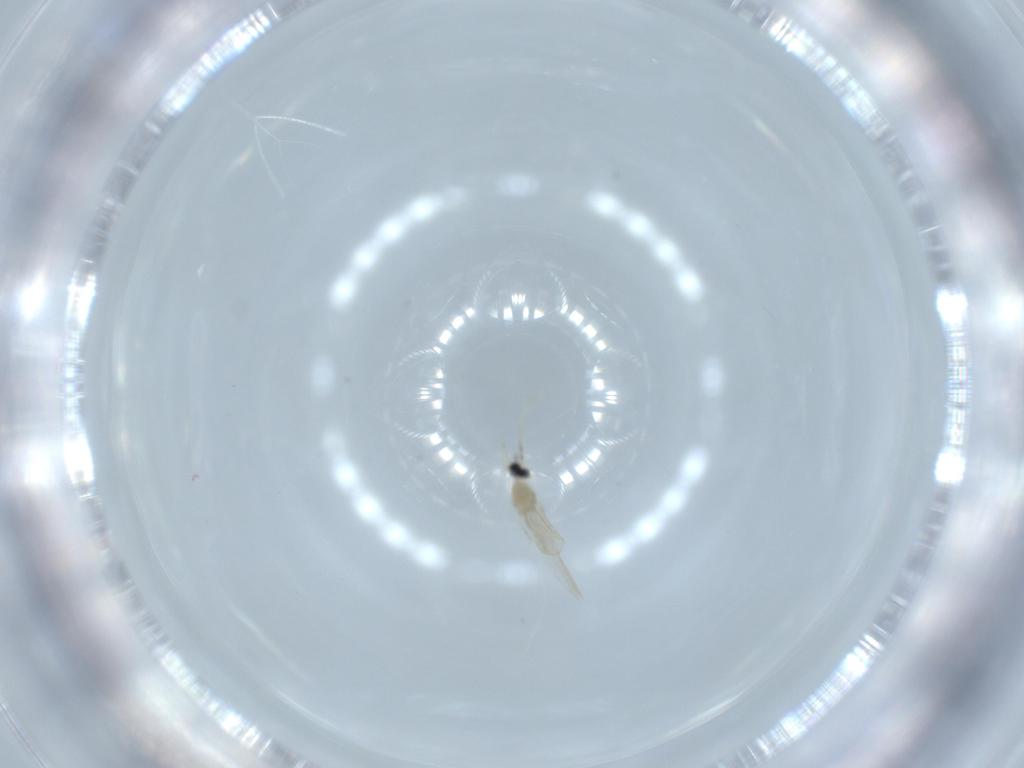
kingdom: Animalia
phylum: Arthropoda
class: Insecta
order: Diptera
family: Cecidomyiidae
